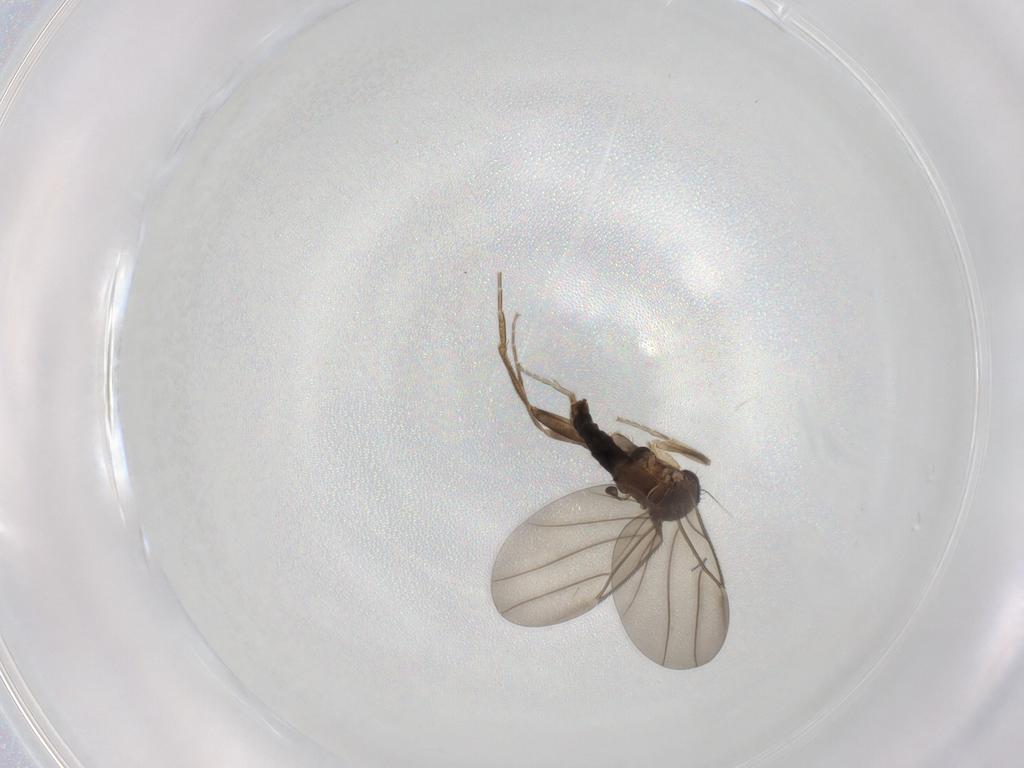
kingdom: Animalia
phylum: Arthropoda
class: Insecta
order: Diptera
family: Phoridae
